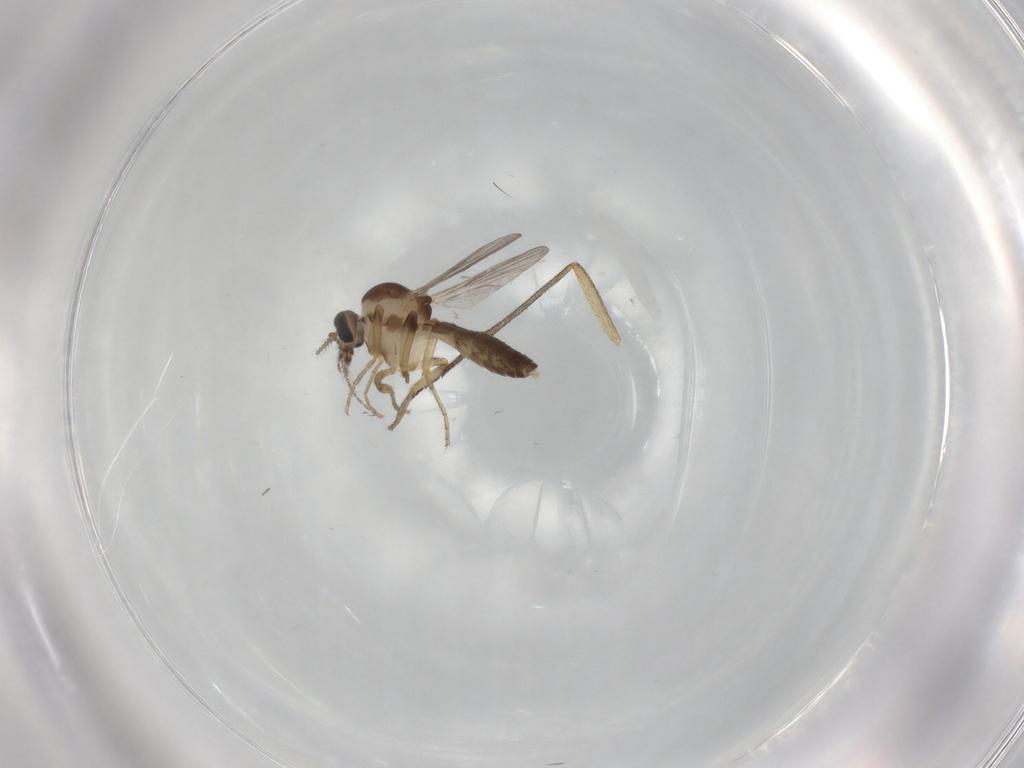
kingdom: Animalia
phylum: Arthropoda
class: Insecta
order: Diptera
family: Ceratopogonidae
